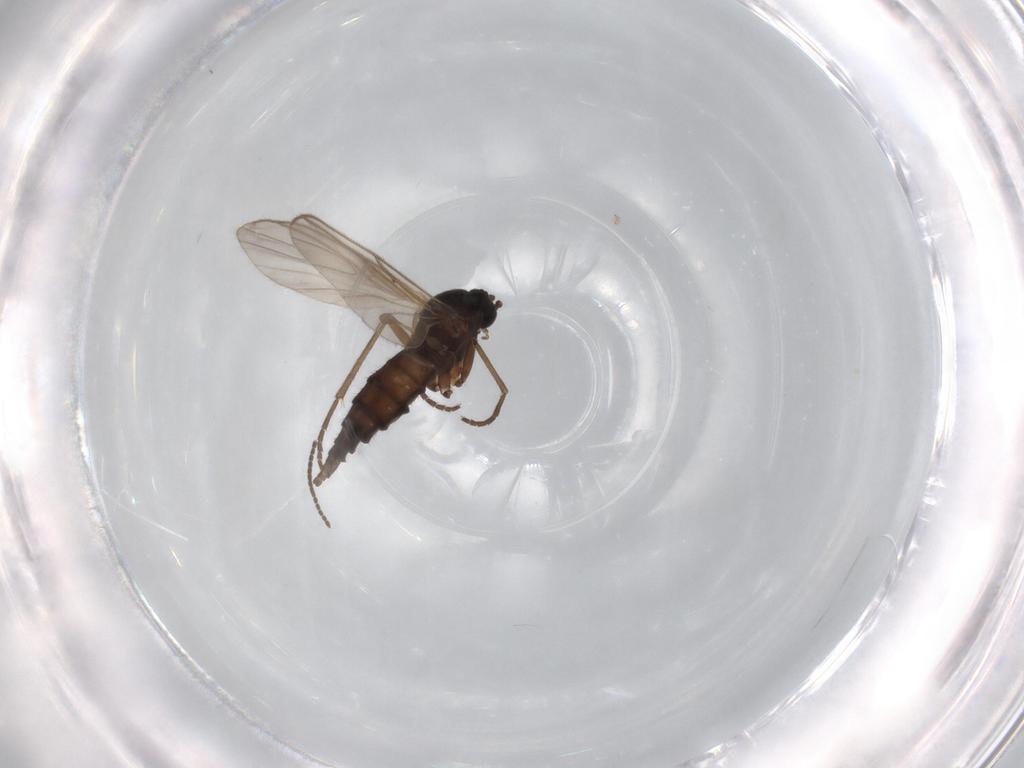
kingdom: Animalia
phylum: Arthropoda
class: Insecta
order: Diptera
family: Sciaridae
